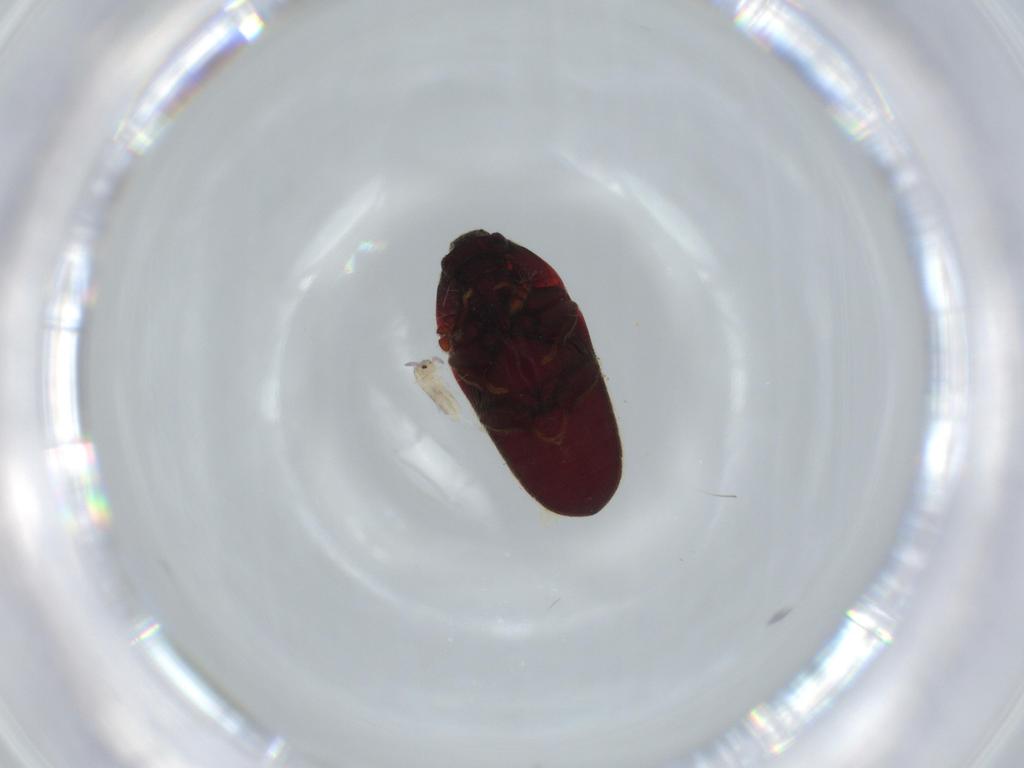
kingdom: Animalia
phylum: Arthropoda
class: Insecta
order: Coleoptera
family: Throscidae
